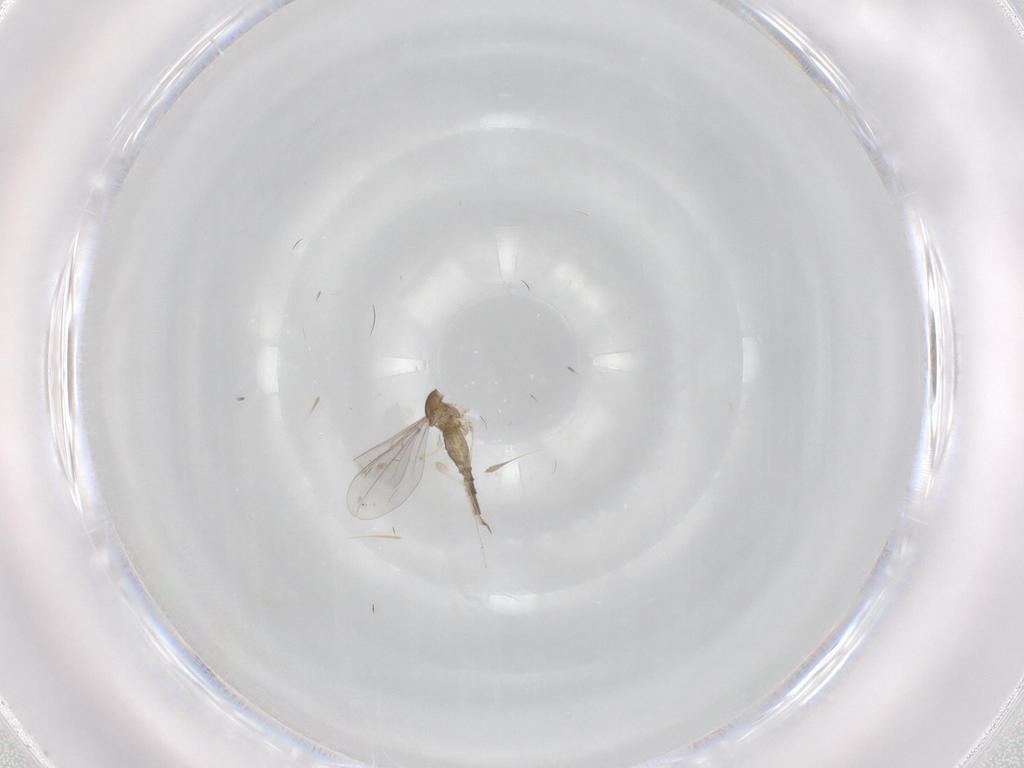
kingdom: Animalia
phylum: Arthropoda
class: Insecta
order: Diptera
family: Cecidomyiidae
